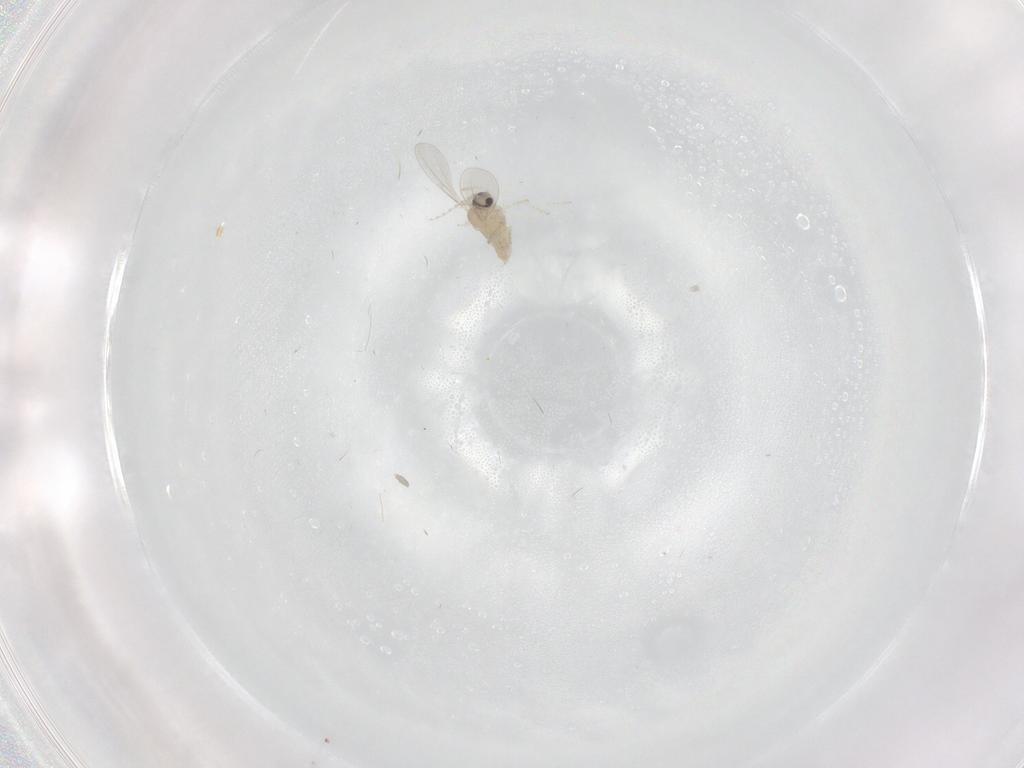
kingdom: Animalia
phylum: Arthropoda
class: Insecta
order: Diptera
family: Cecidomyiidae
